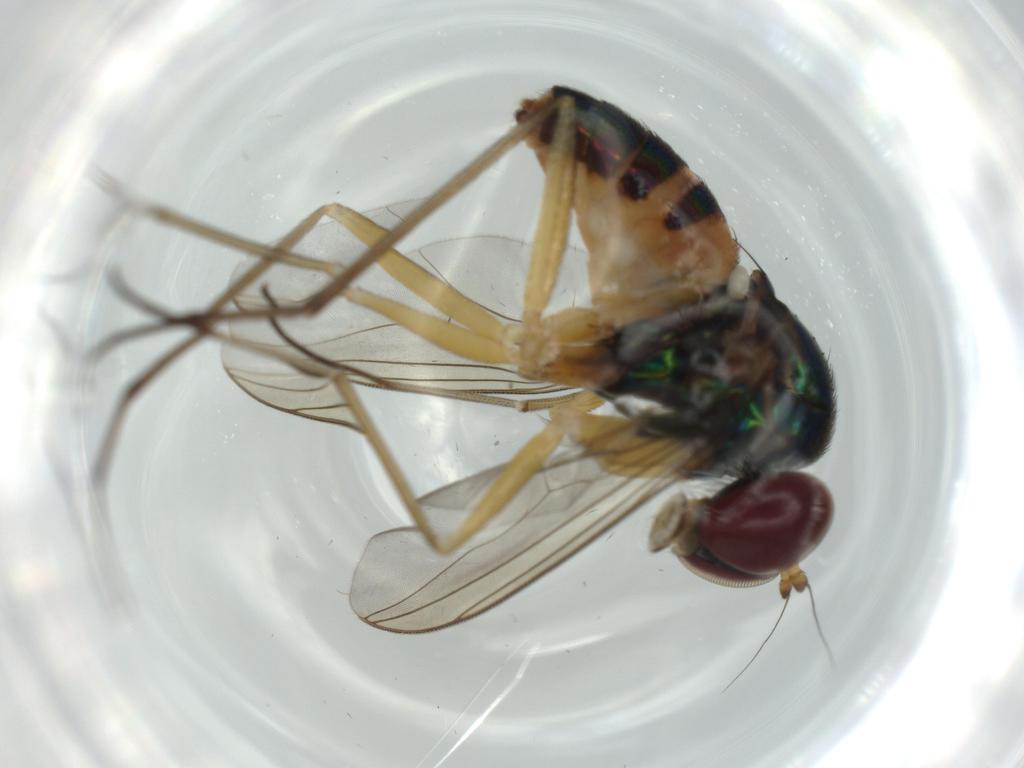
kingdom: Animalia
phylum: Arthropoda
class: Insecta
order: Diptera
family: Dolichopodidae
